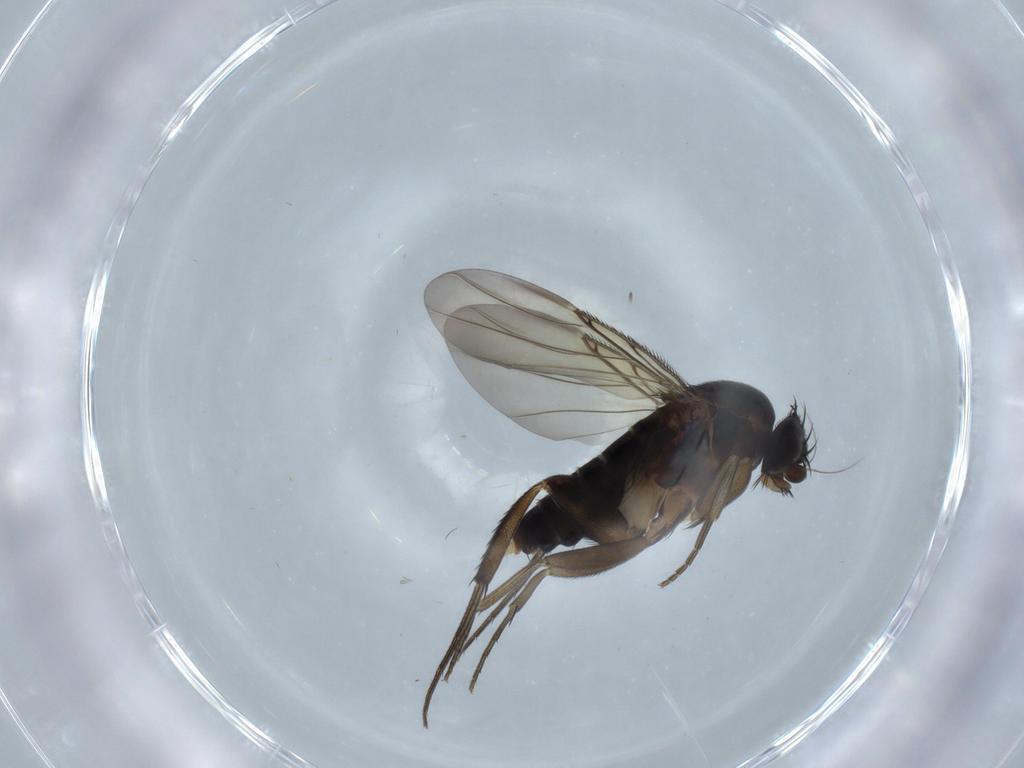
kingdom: Animalia
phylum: Arthropoda
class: Insecta
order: Diptera
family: Phoridae
